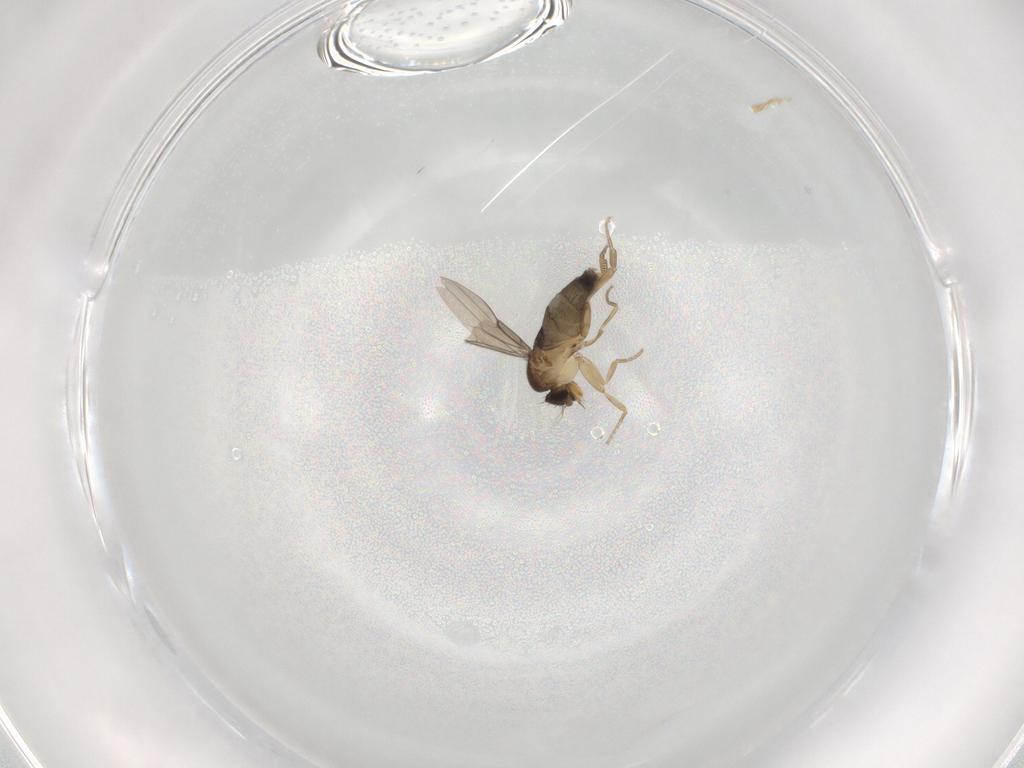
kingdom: Animalia
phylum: Arthropoda
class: Insecta
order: Diptera
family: Phoridae
